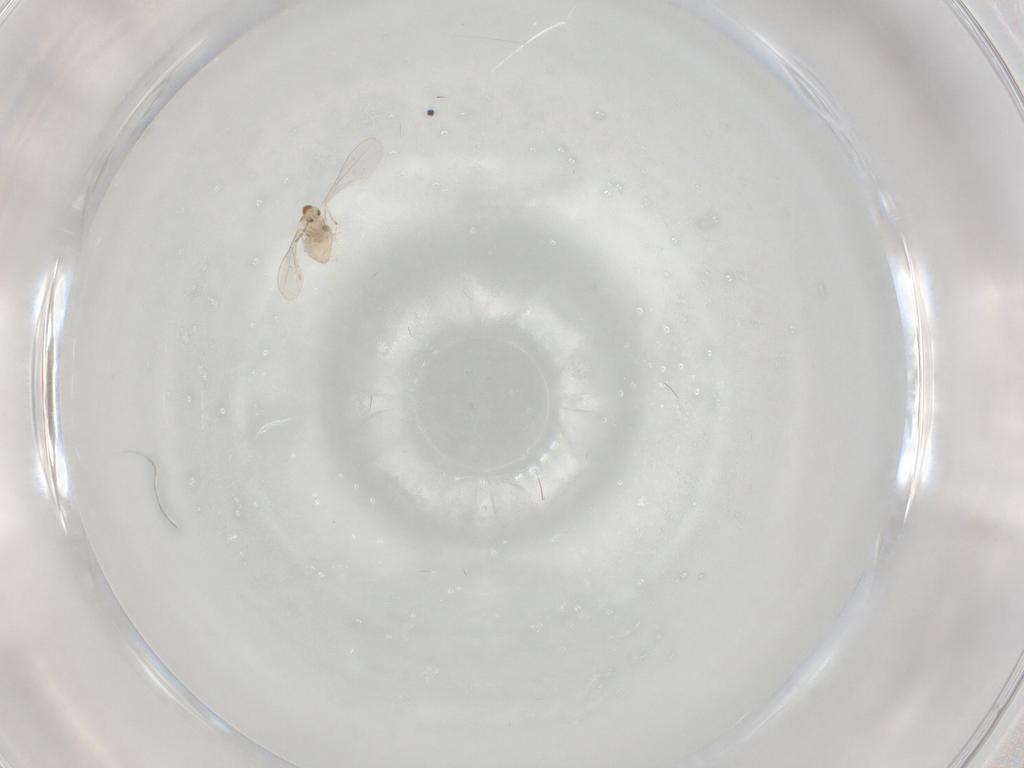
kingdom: Animalia
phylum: Arthropoda
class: Insecta
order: Diptera
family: Cecidomyiidae
